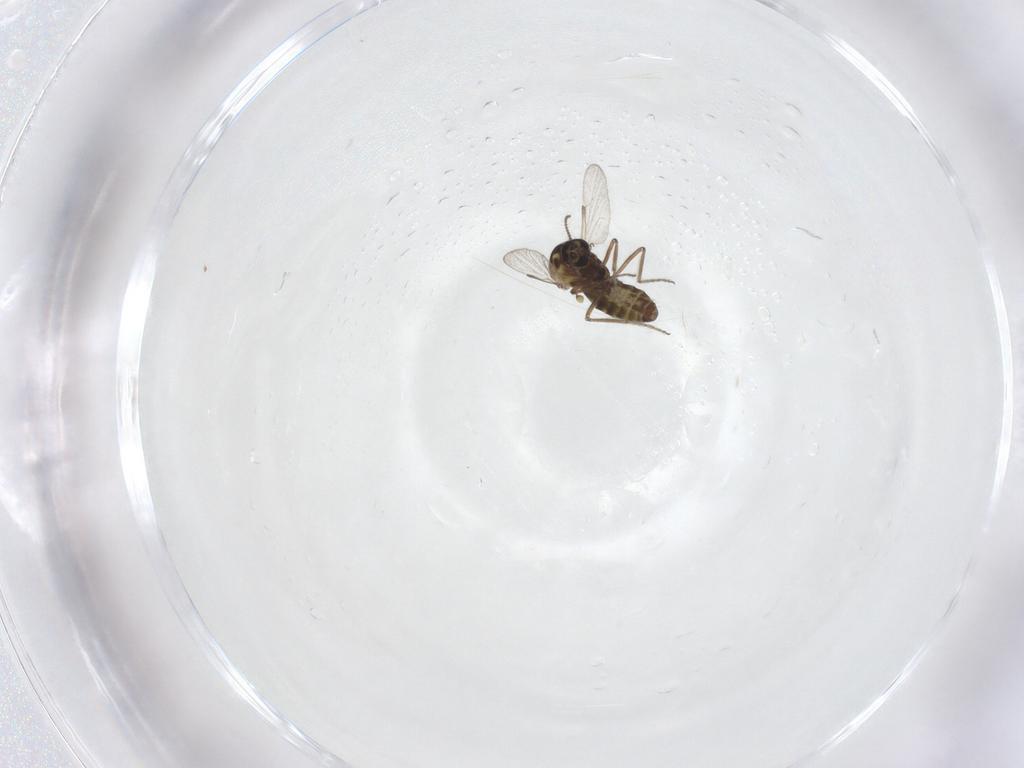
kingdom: Animalia
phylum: Arthropoda
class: Insecta
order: Diptera
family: Ceratopogonidae
